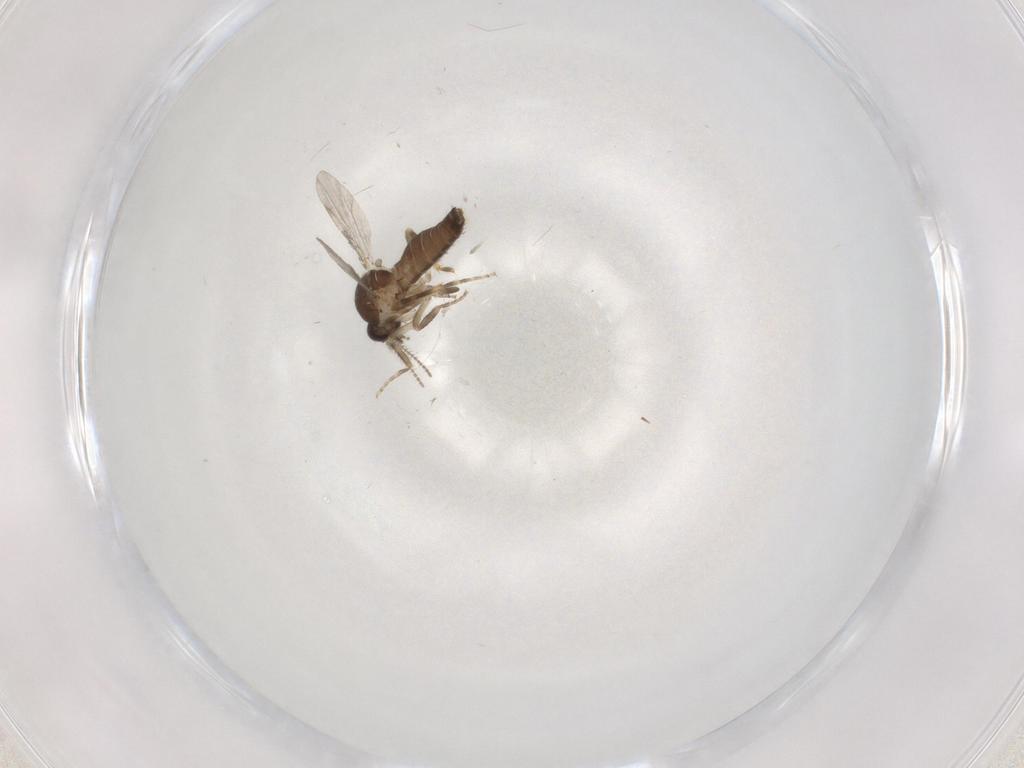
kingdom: Animalia
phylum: Arthropoda
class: Insecta
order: Diptera
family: Ceratopogonidae
